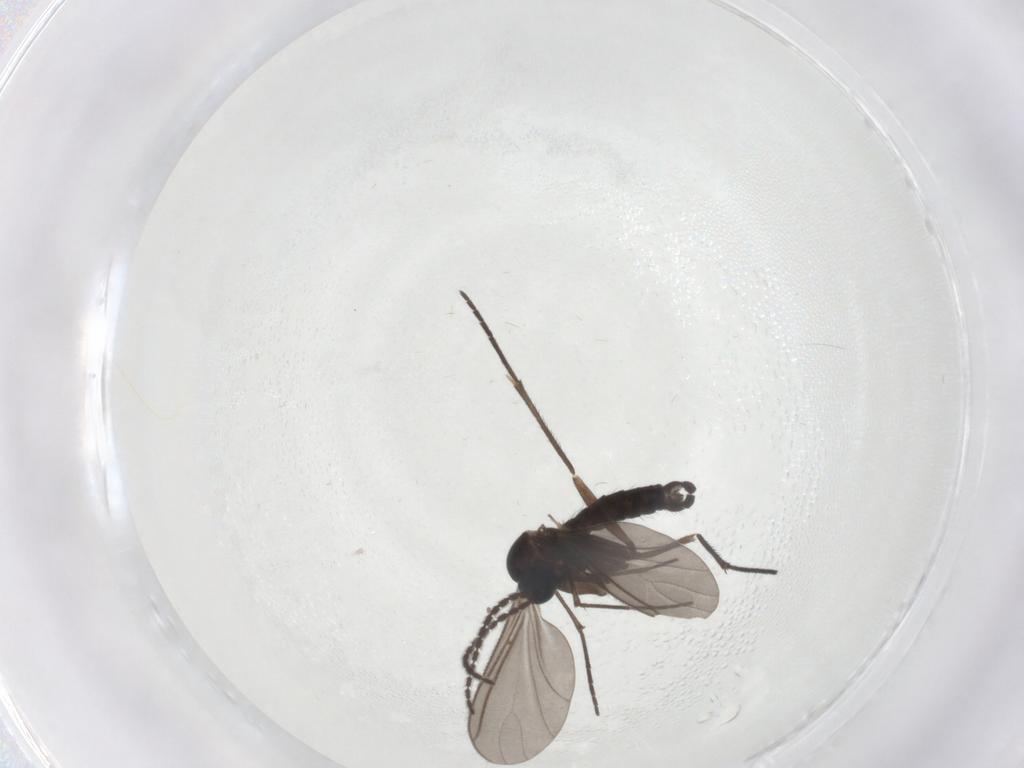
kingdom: Animalia
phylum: Arthropoda
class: Insecta
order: Diptera
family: Sciaridae
